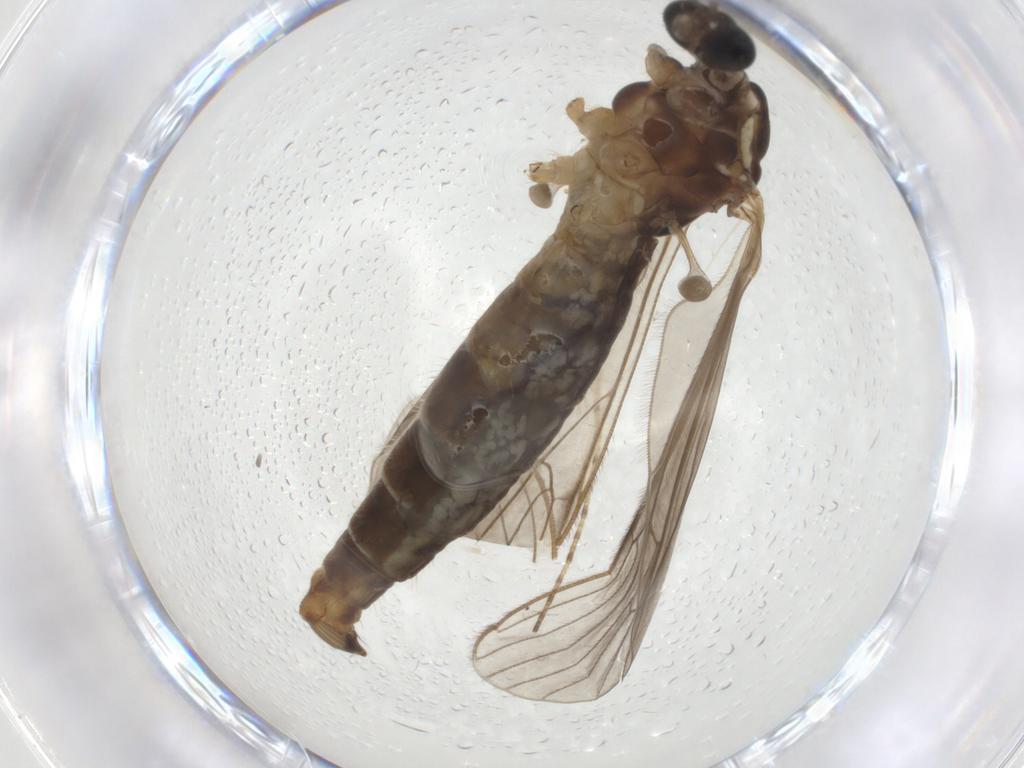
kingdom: Animalia
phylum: Arthropoda
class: Insecta
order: Diptera
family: Limoniidae
